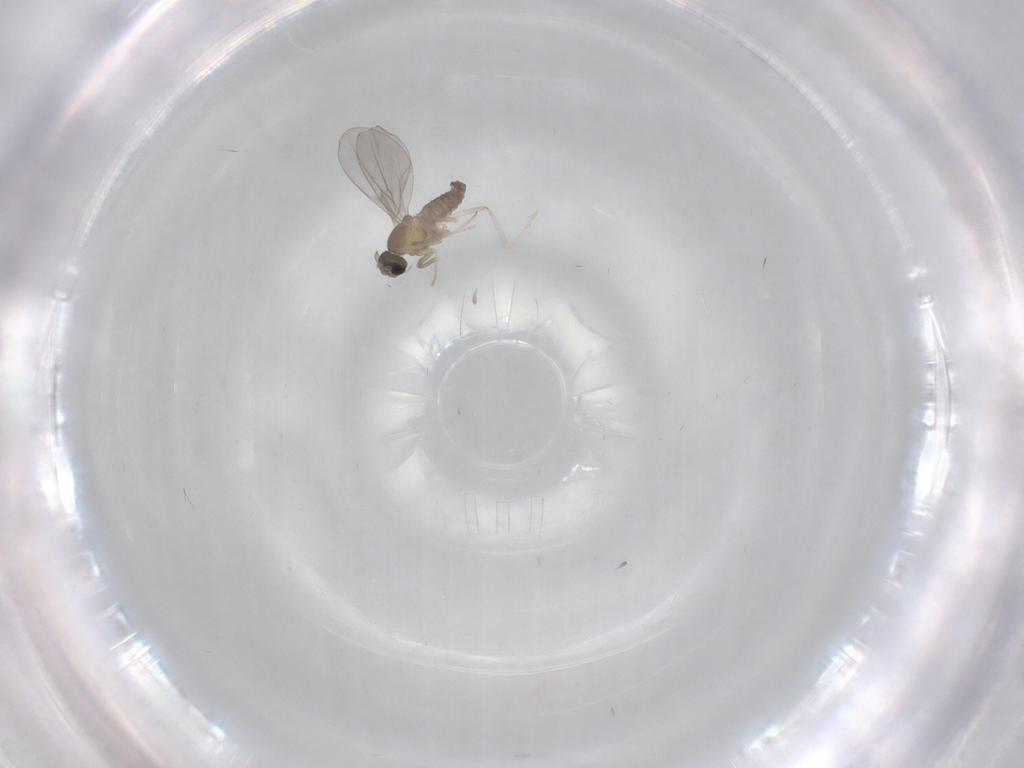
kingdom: Animalia
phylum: Arthropoda
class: Insecta
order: Diptera
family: Cecidomyiidae
